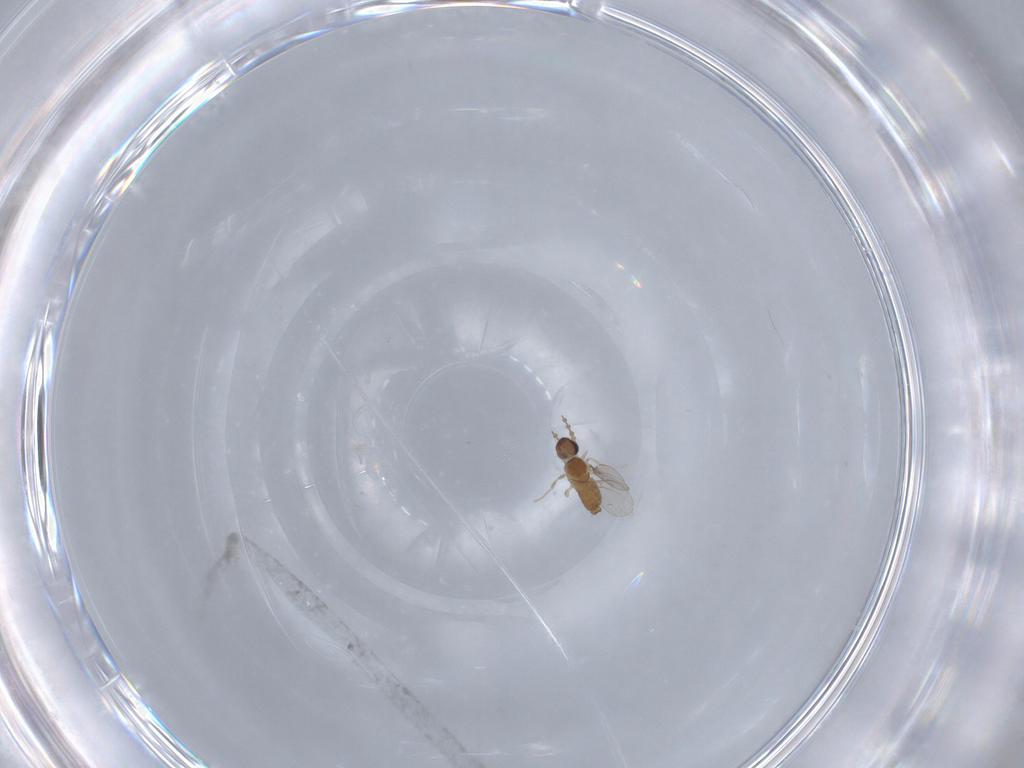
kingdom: Animalia
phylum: Arthropoda
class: Insecta
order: Diptera
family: Cecidomyiidae
